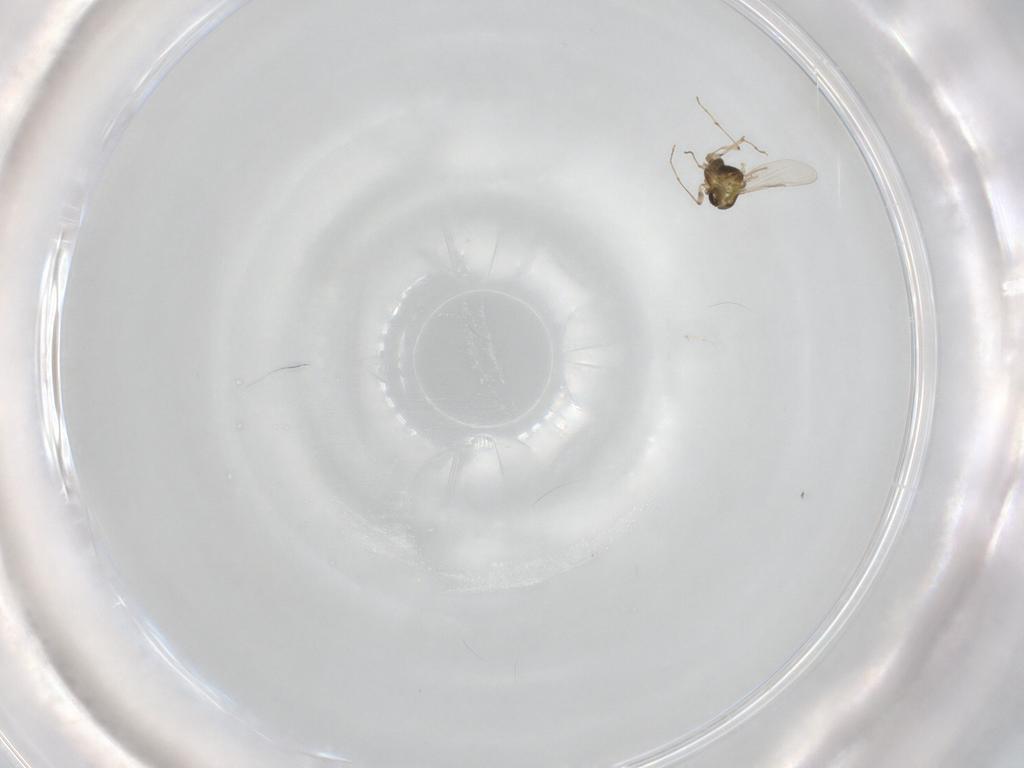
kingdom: Animalia
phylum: Arthropoda
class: Insecta
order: Diptera
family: Chironomidae
